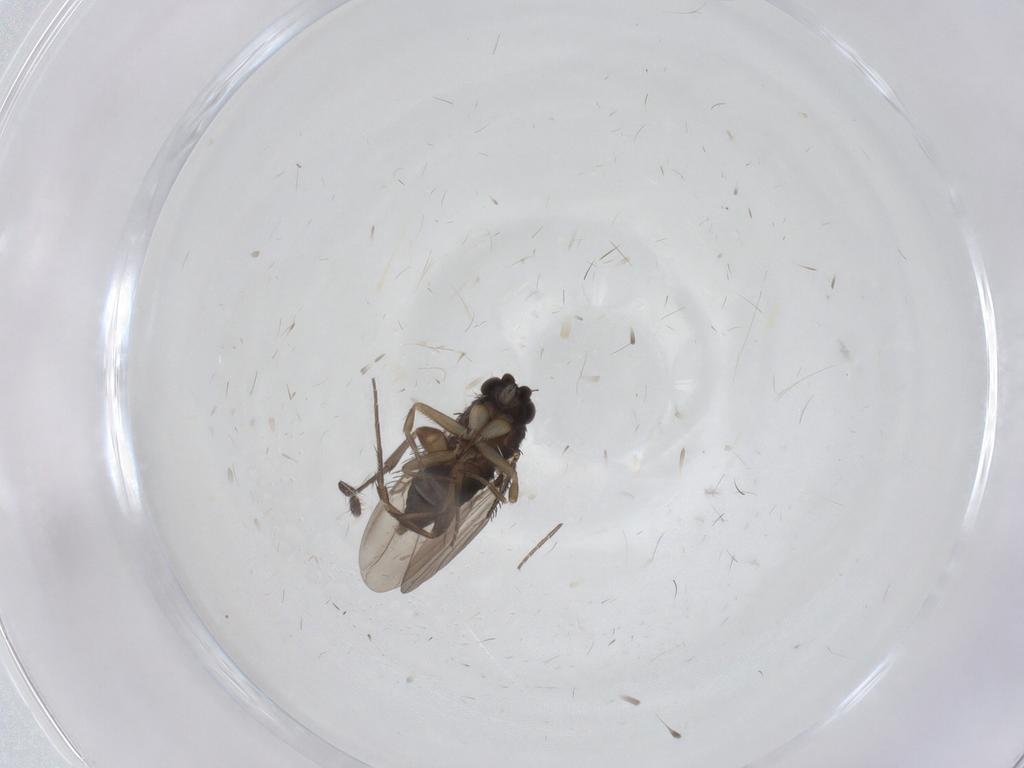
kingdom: Animalia
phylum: Arthropoda
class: Insecta
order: Diptera
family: Phoridae
